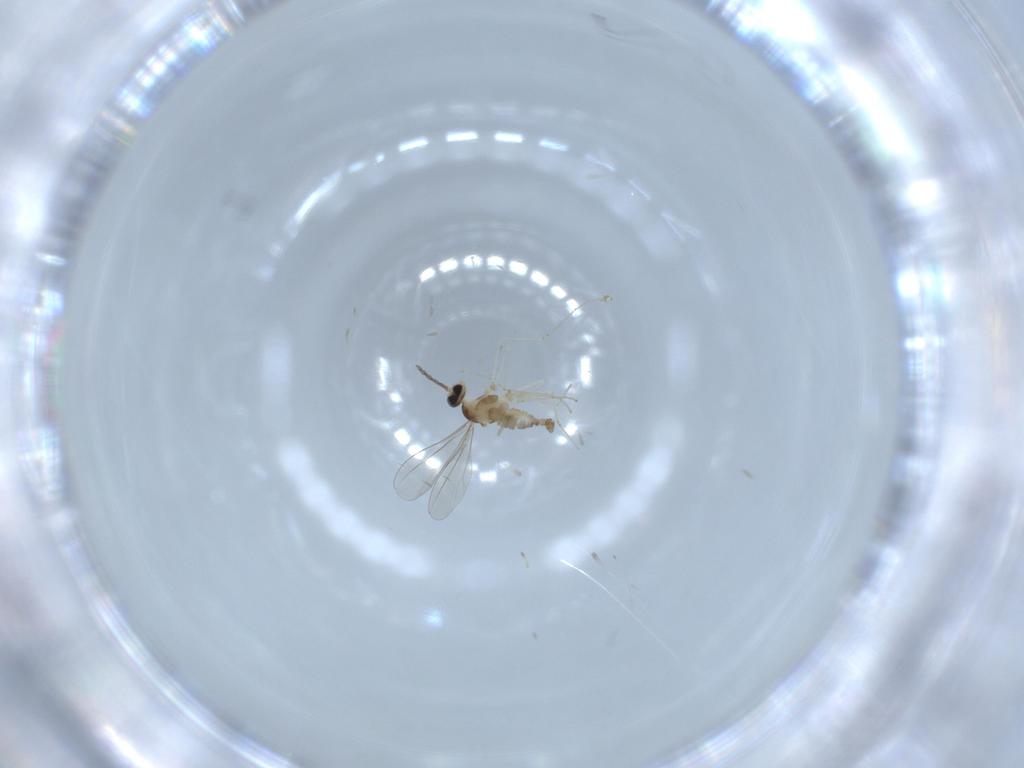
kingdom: Animalia
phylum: Arthropoda
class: Insecta
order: Diptera
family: Cecidomyiidae
